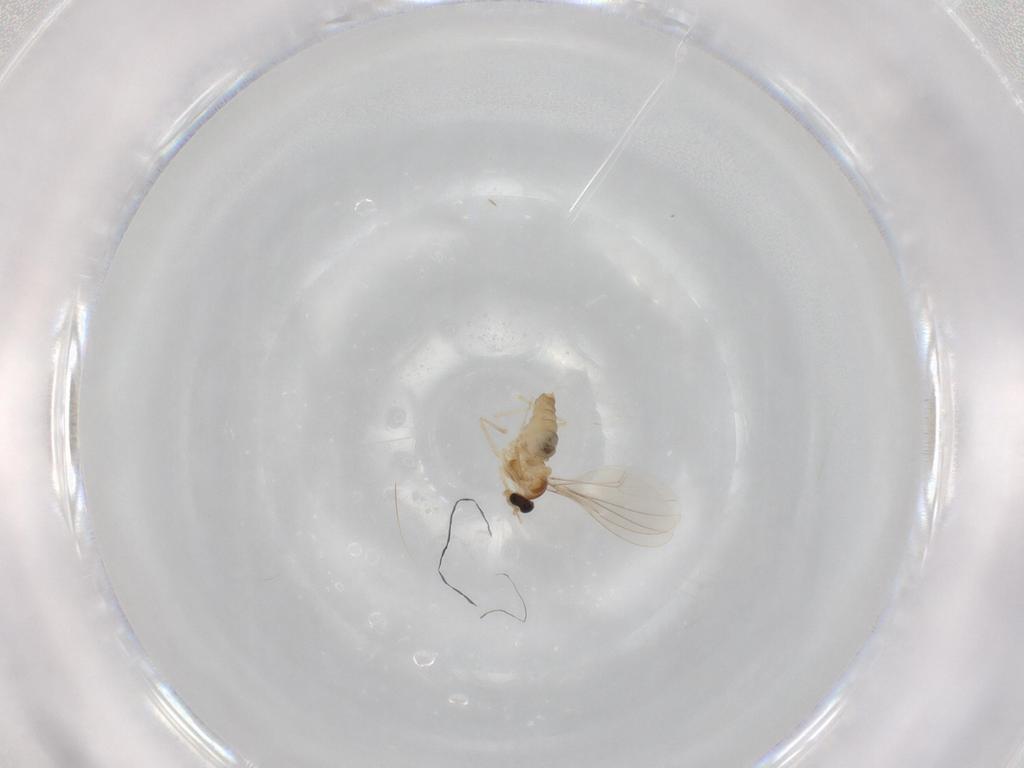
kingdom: Animalia
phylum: Arthropoda
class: Insecta
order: Diptera
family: Cecidomyiidae
